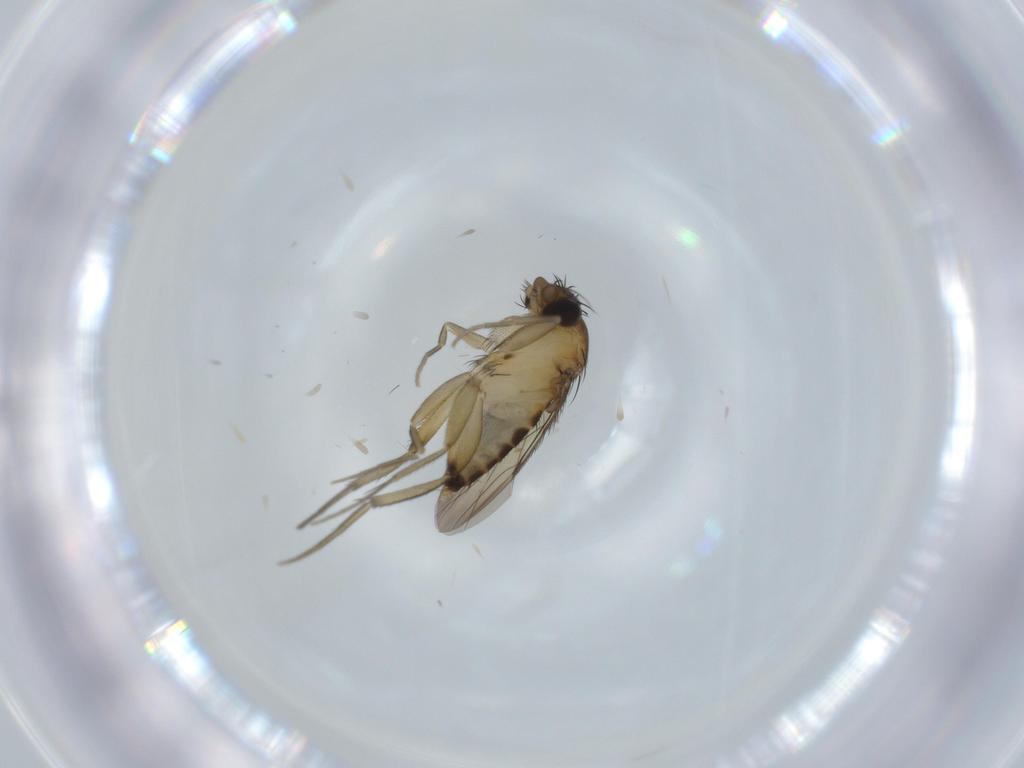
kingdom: Animalia
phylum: Arthropoda
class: Insecta
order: Diptera
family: Phoridae
